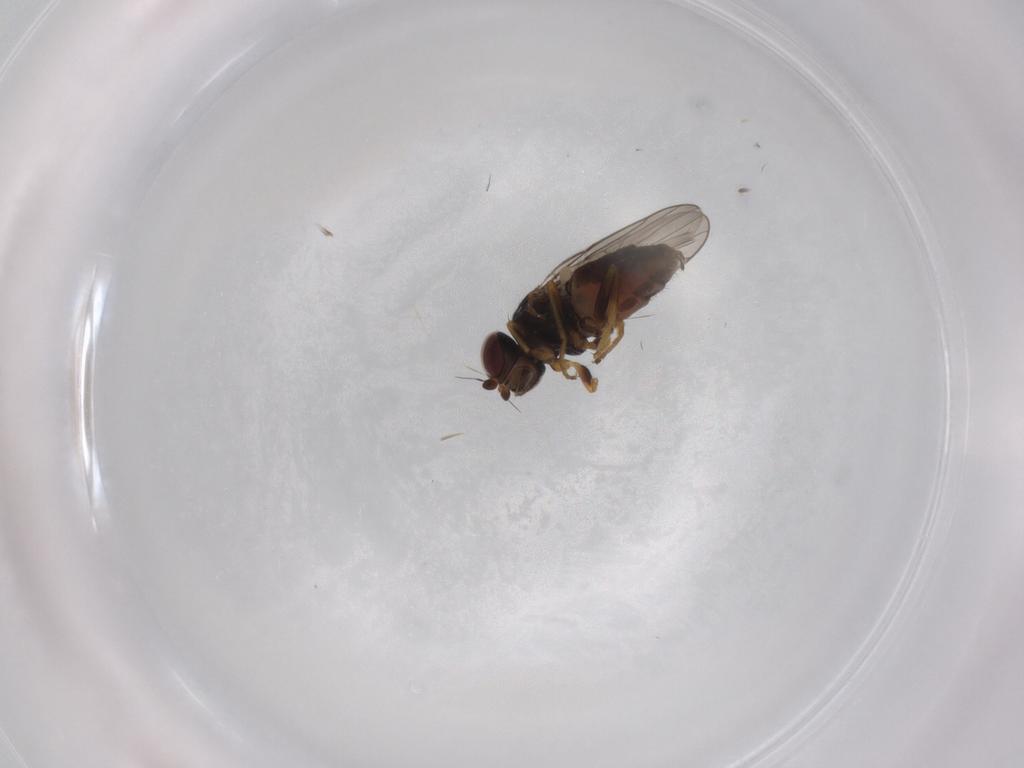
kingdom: Animalia
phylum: Arthropoda
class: Insecta
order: Diptera
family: Chloropidae
